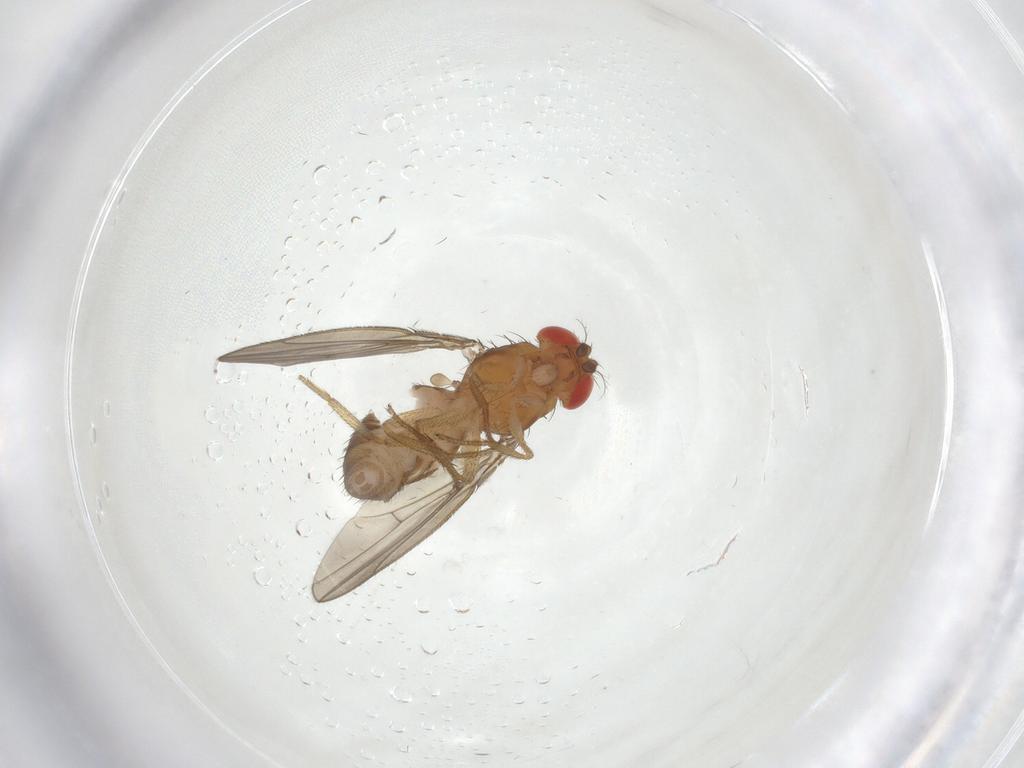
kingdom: Animalia
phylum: Arthropoda
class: Insecta
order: Diptera
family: Drosophilidae
